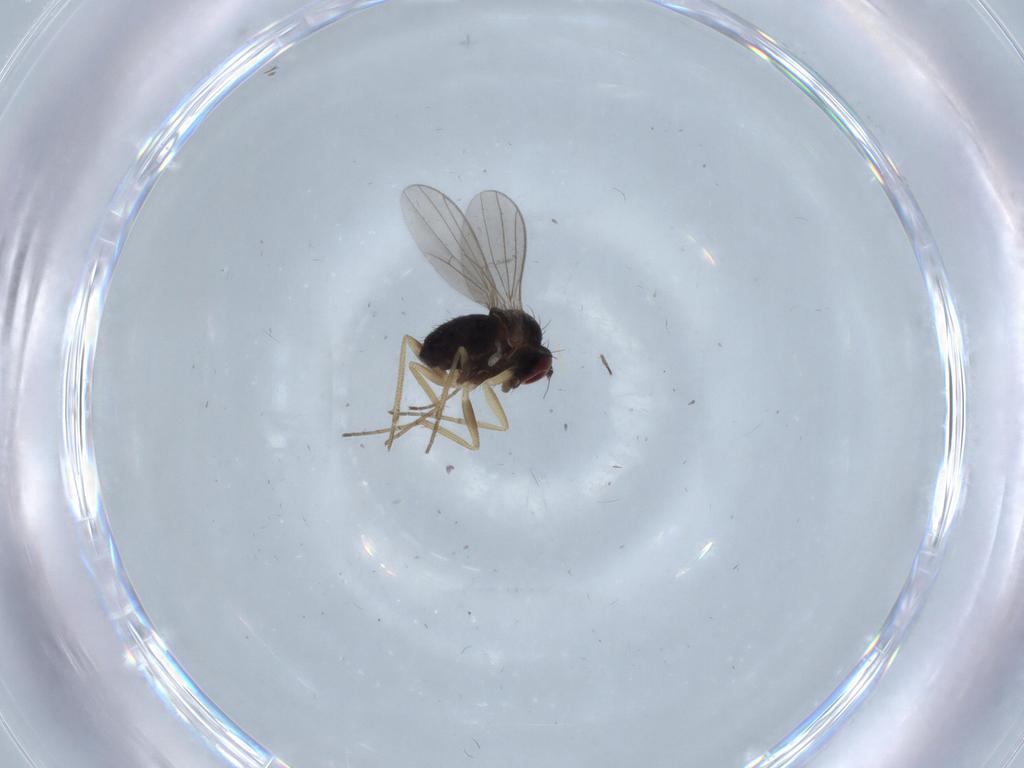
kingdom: Animalia
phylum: Arthropoda
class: Insecta
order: Diptera
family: Dolichopodidae
